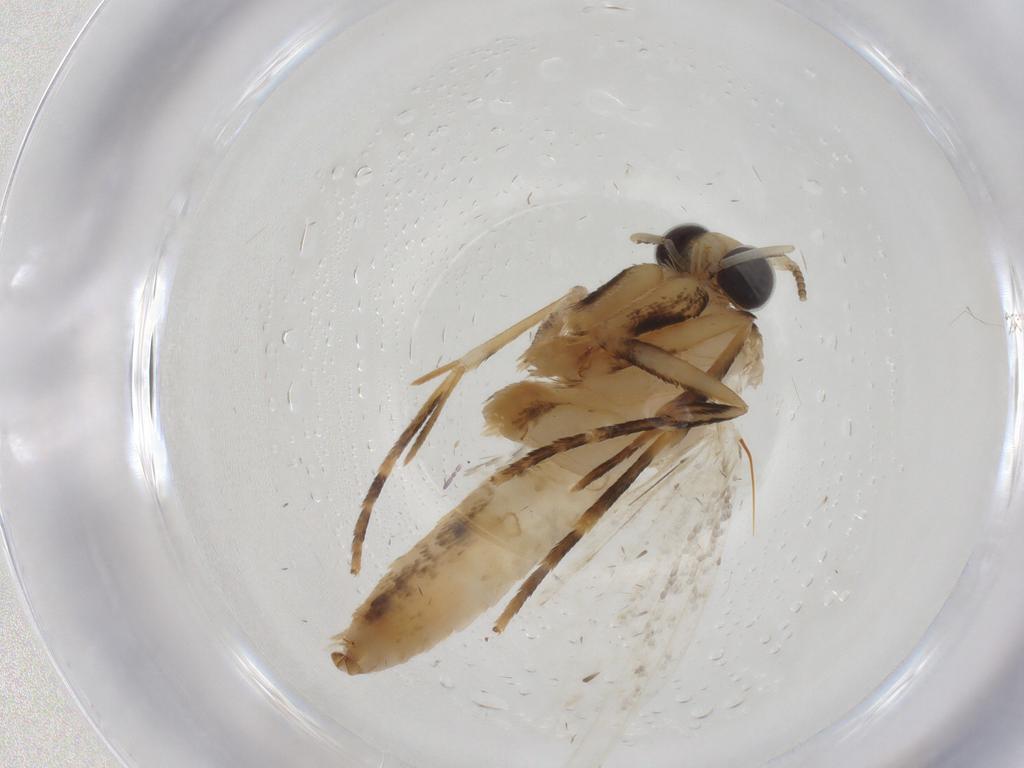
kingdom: Animalia
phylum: Arthropoda
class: Insecta
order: Lepidoptera
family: Tineidae
